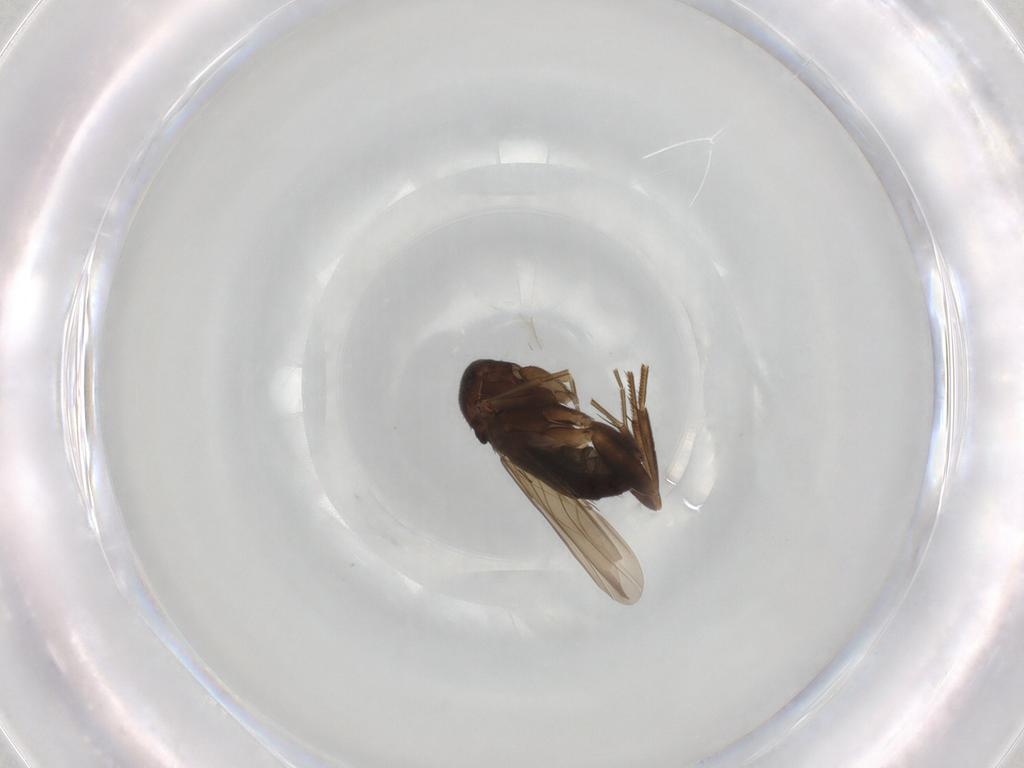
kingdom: Animalia
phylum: Arthropoda
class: Insecta
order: Diptera
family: Phoridae
